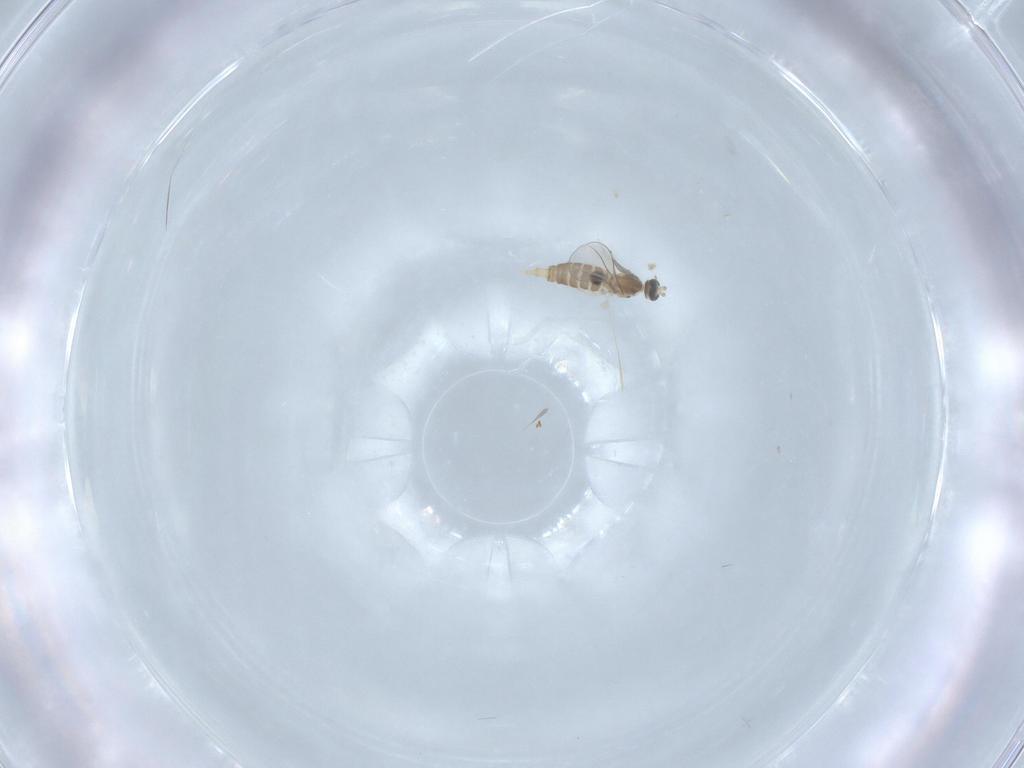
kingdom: Animalia
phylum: Arthropoda
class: Insecta
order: Diptera
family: Cecidomyiidae
